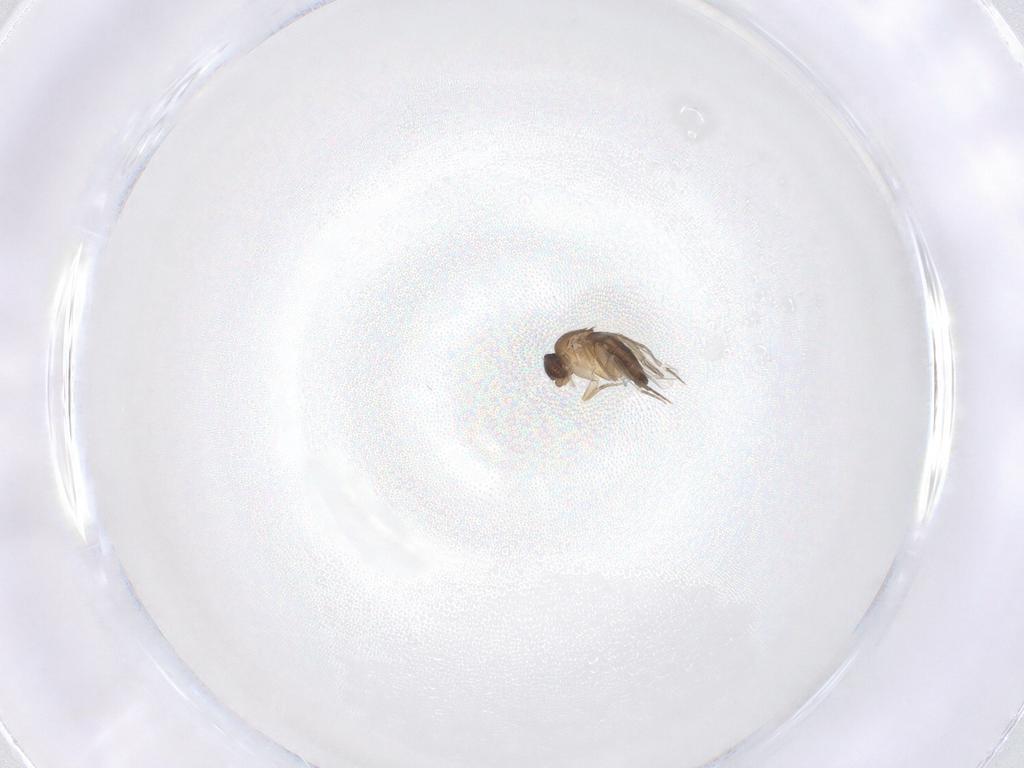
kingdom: Animalia
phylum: Arthropoda
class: Insecta
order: Diptera
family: Phoridae
